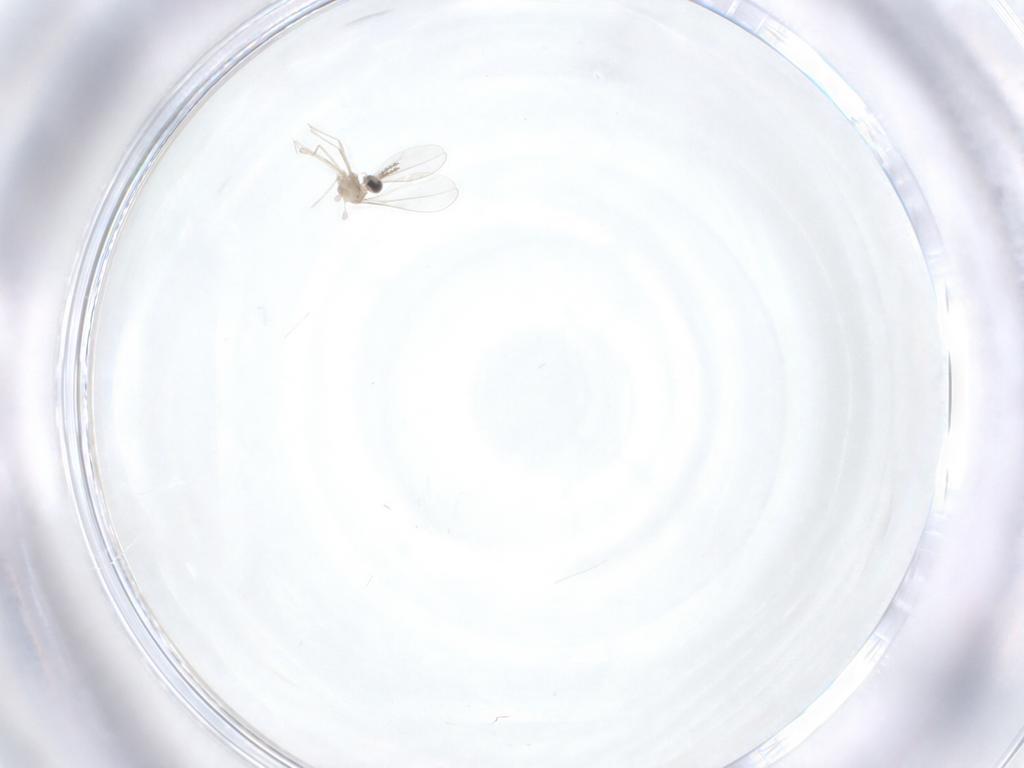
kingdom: Animalia
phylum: Arthropoda
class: Insecta
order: Diptera
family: Cecidomyiidae
